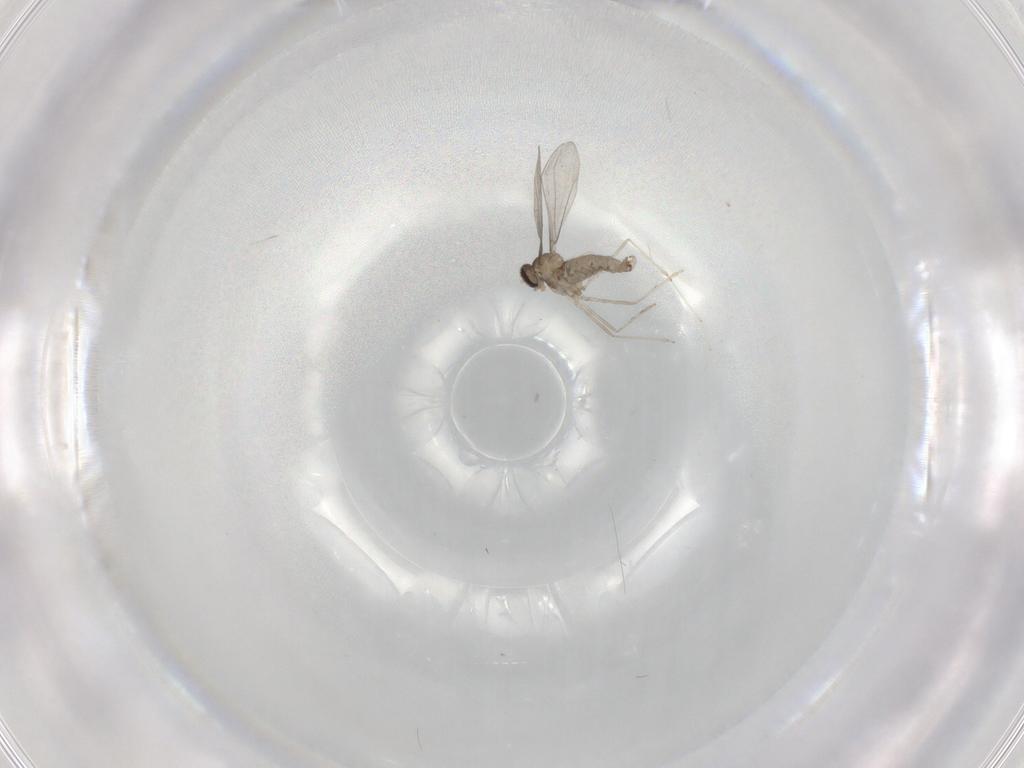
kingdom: Animalia
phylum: Arthropoda
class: Insecta
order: Diptera
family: Cecidomyiidae
